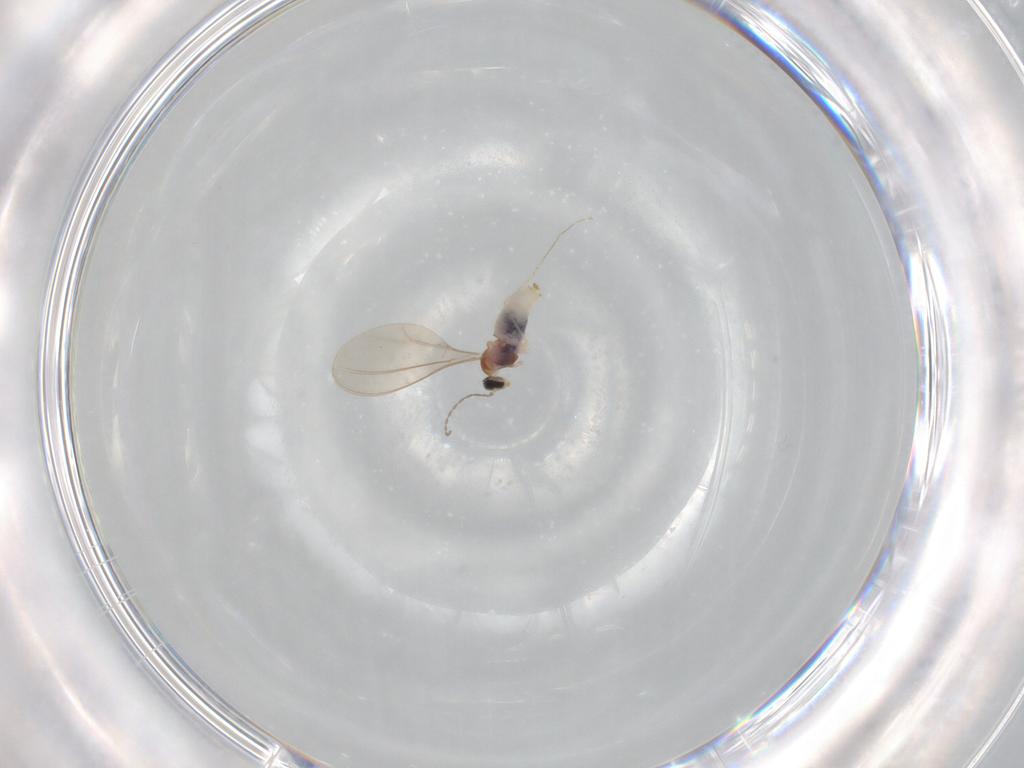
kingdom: Animalia
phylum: Arthropoda
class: Insecta
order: Diptera
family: Cecidomyiidae
